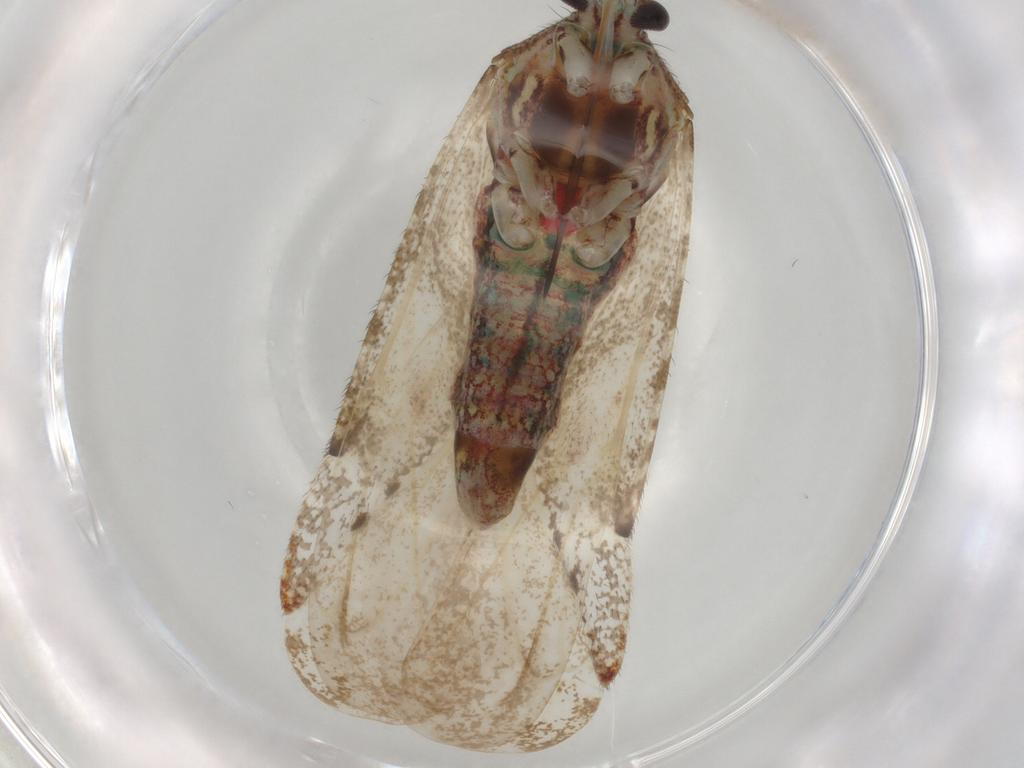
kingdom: Animalia
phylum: Arthropoda
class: Insecta
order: Hemiptera
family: Miridae
